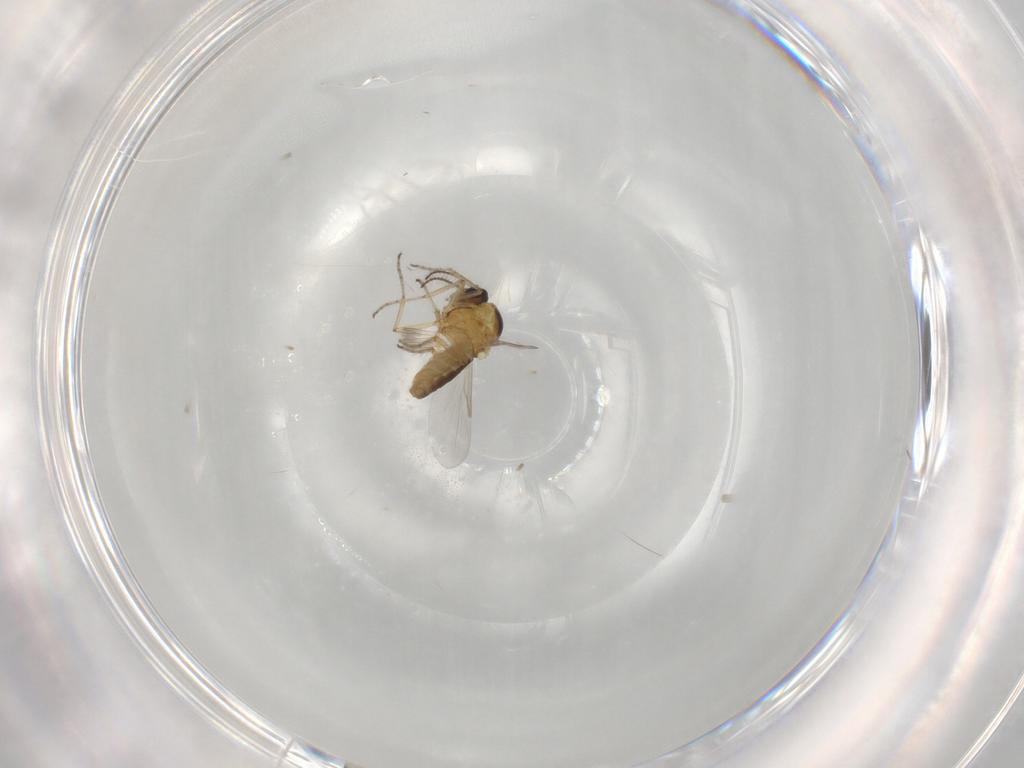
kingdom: Animalia
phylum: Arthropoda
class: Insecta
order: Diptera
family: Ceratopogonidae
